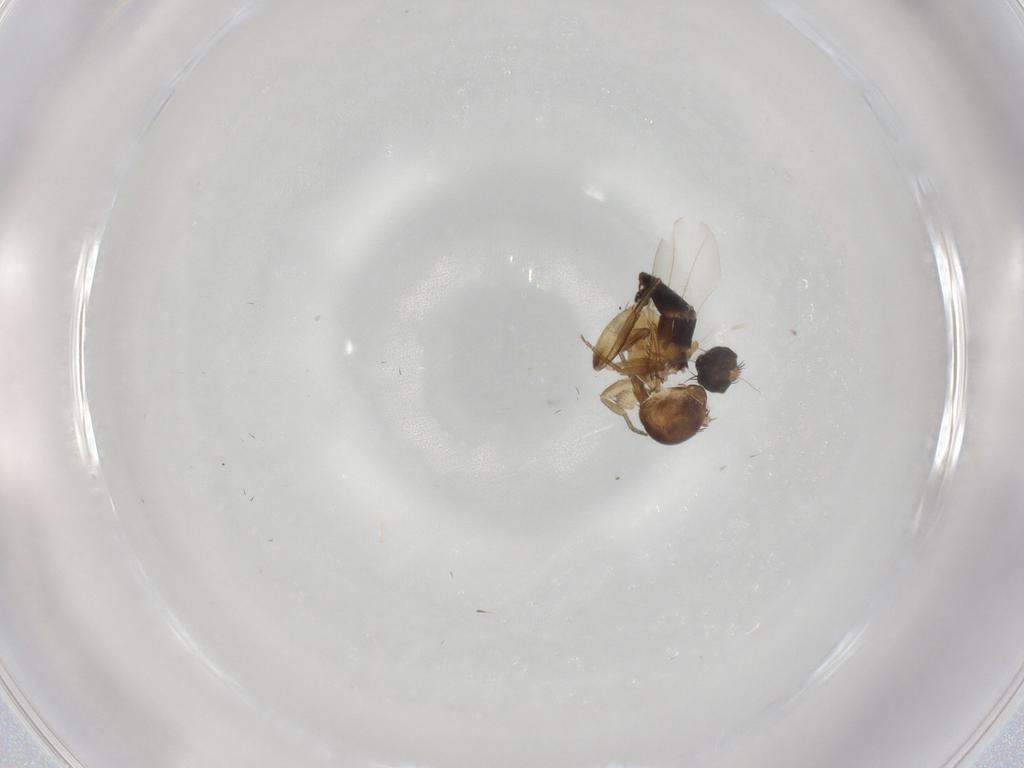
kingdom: Animalia
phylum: Arthropoda
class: Insecta
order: Diptera
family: Phoridae
